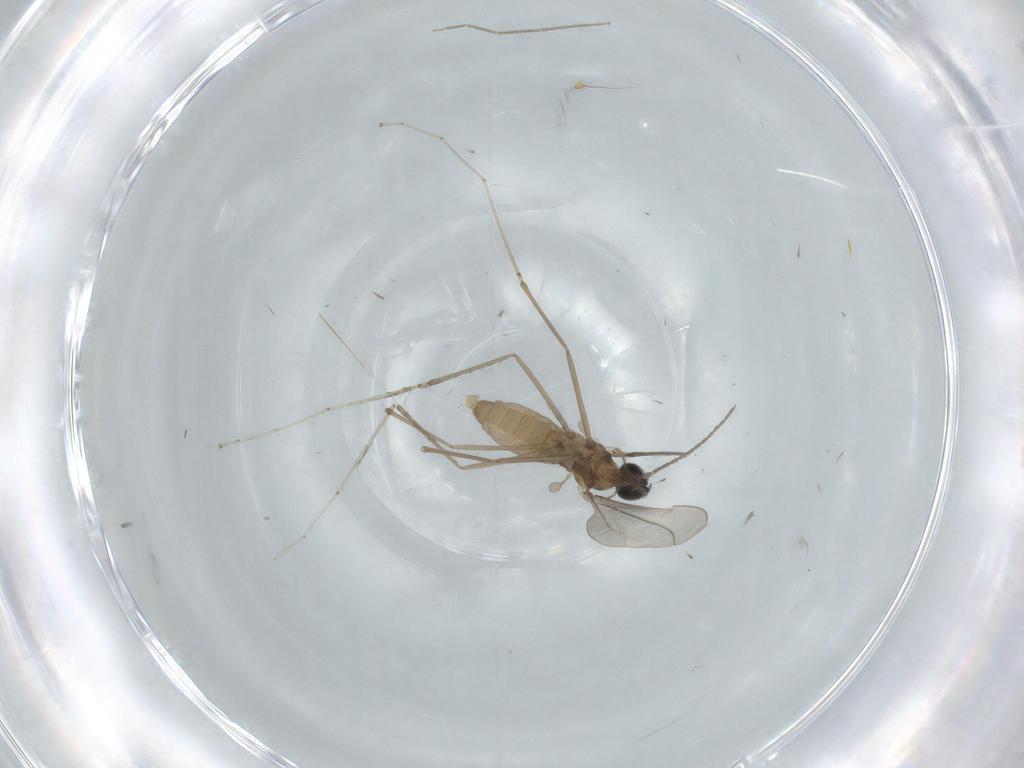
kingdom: Animalia
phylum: Arthropoda
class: Insecta
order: Diptera
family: Cecidomyiidae
